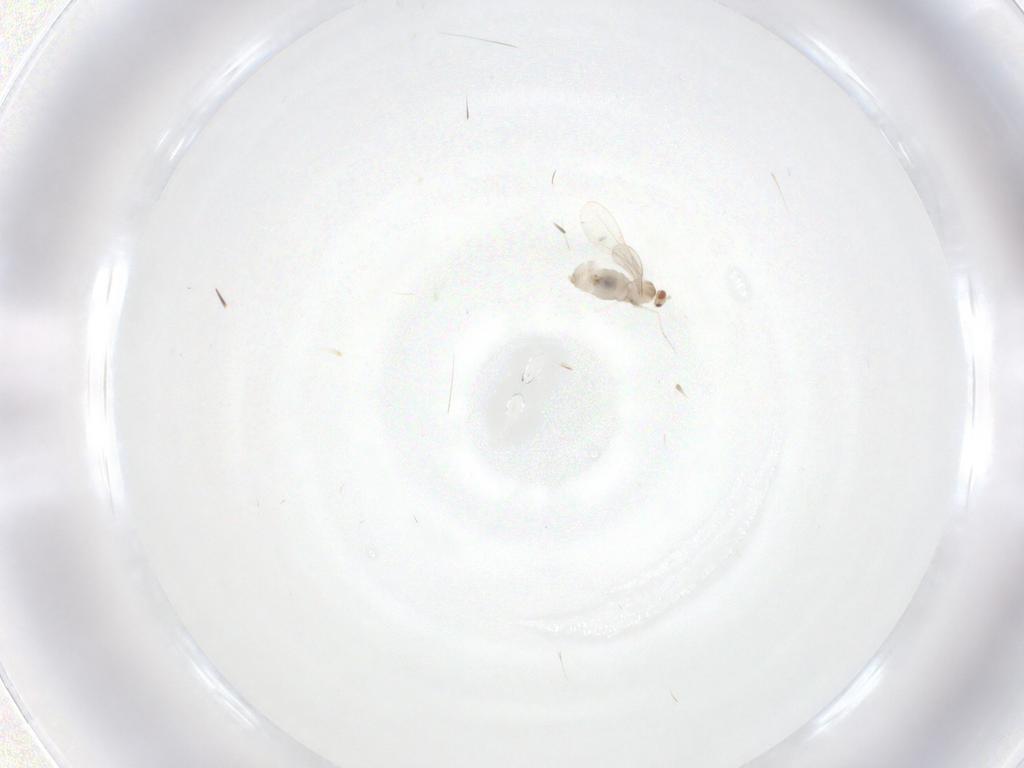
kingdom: Animalia
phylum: Arthropoda
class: Insecta
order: Diptera
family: Cecidomyiidae
